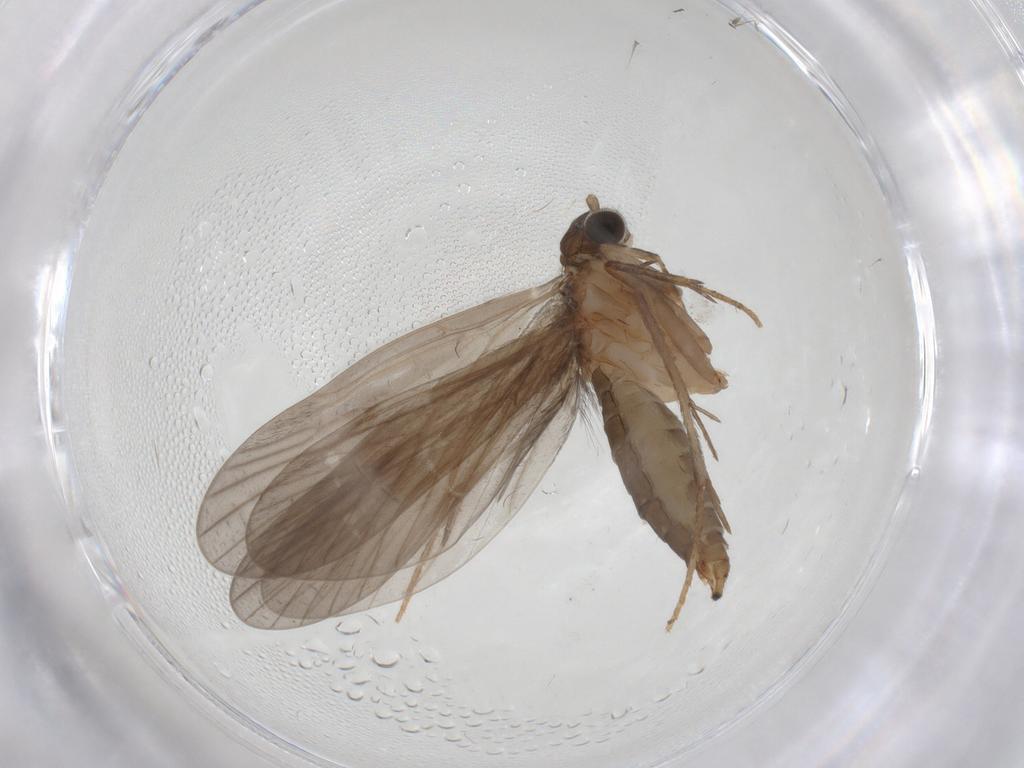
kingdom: Animalia
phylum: Arthropoda
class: Insecta
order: Trichoptera
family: Philopotamidae
